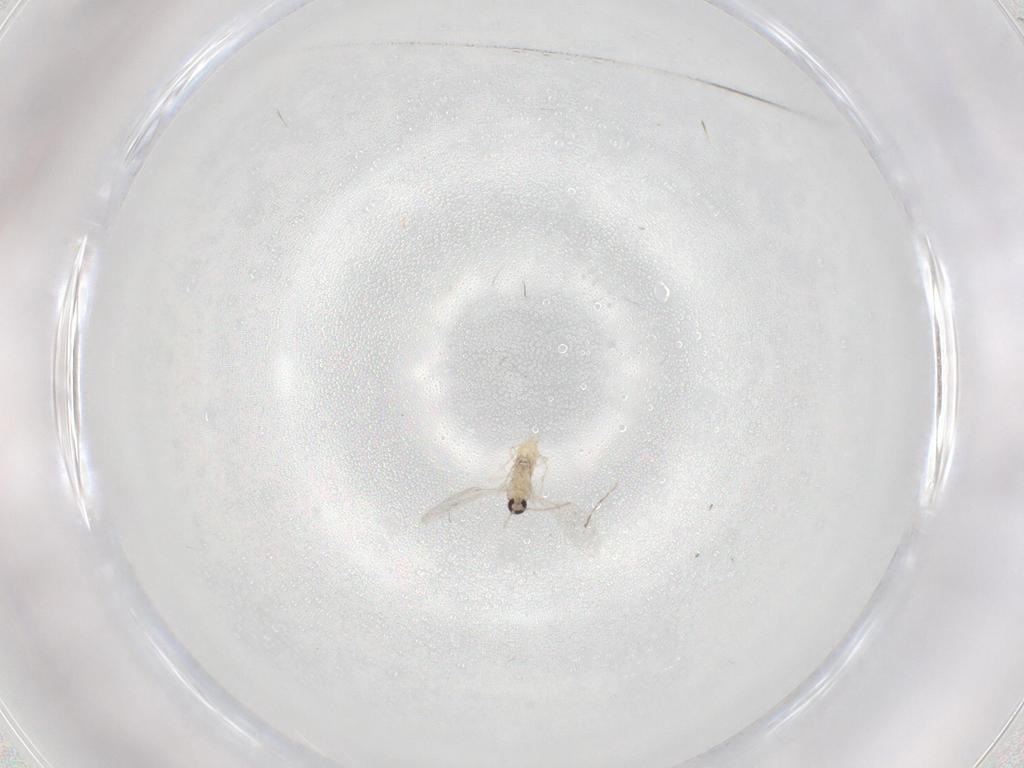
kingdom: Animalia
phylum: Arthropoda
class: Insecta
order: Diptera
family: Cecidomyiidae
